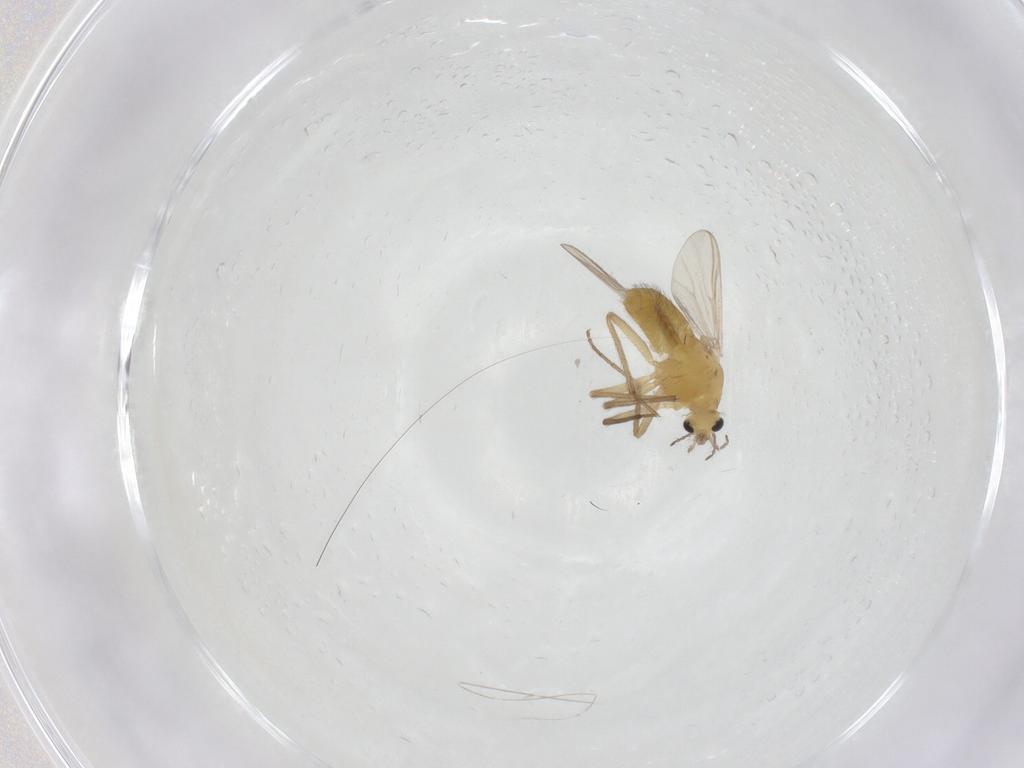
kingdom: Animalia
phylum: Arthropoda
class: Insecta
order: Diptera
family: Chironomidae
